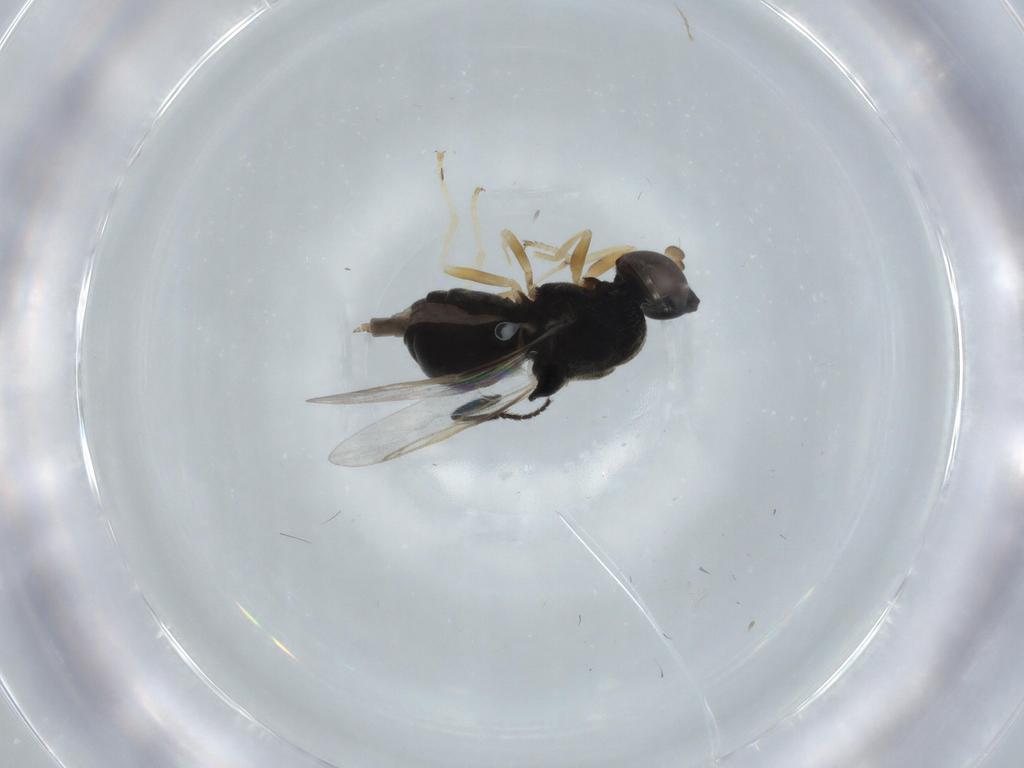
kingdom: Animalia
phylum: Arthropoda
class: Insecta
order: Diptera
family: Stratiomyidae
